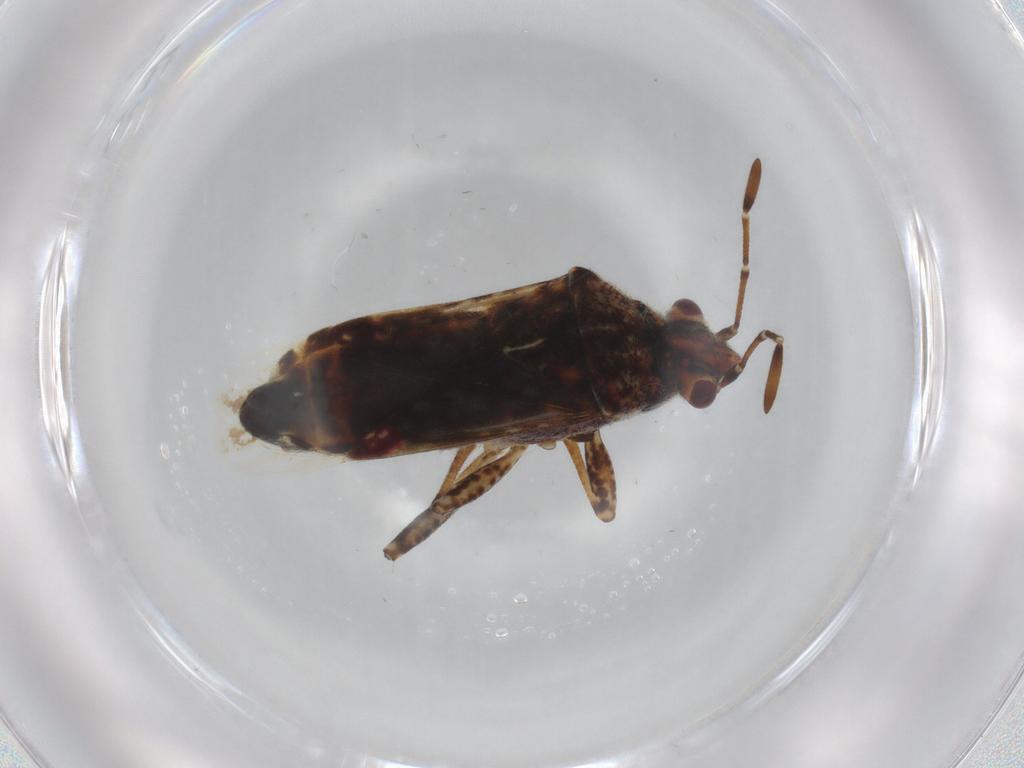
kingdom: Animalia
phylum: Arthropoda
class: Insecta
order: Hemiptera
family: Lygaeidae
